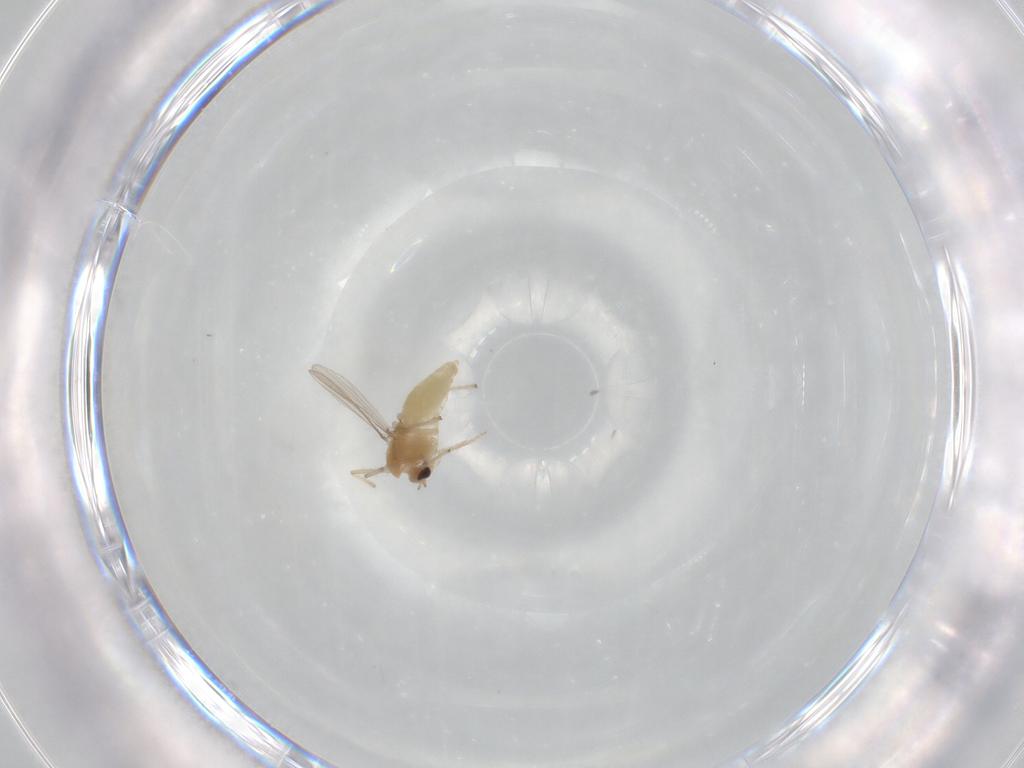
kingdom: Animalia
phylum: Arthropoda
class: Insecta
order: Diptera
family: Chironomidae
